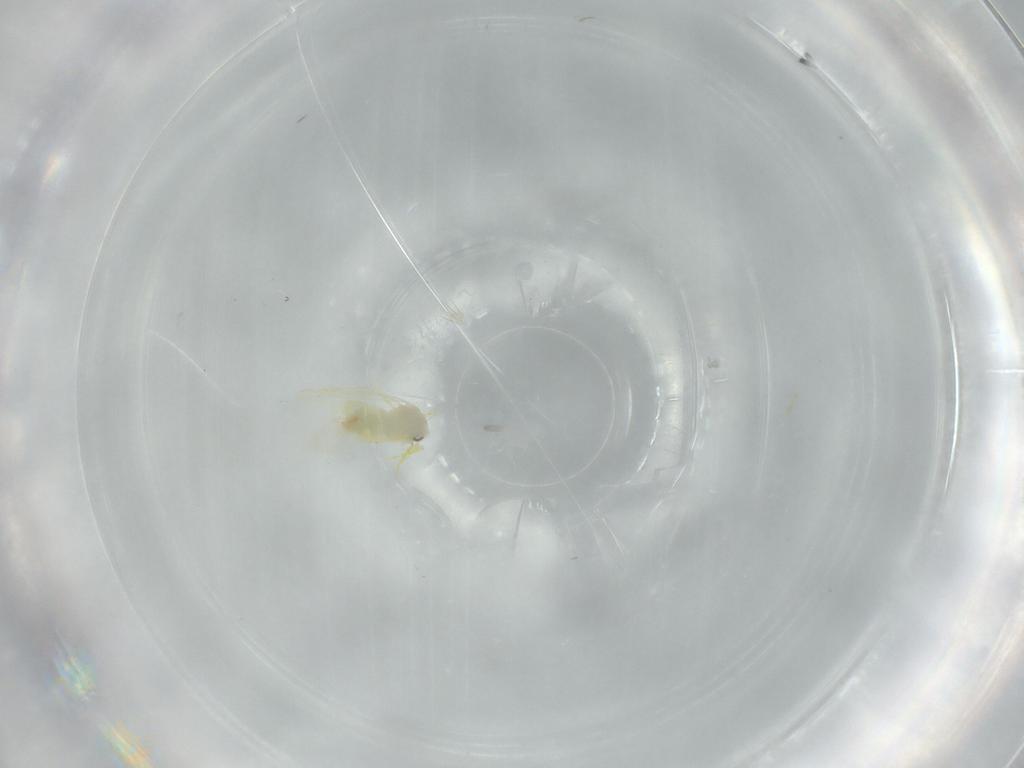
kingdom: Animalia
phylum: Arthropoda
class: Insecta
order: Hemiptera
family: Aleyrodidae
